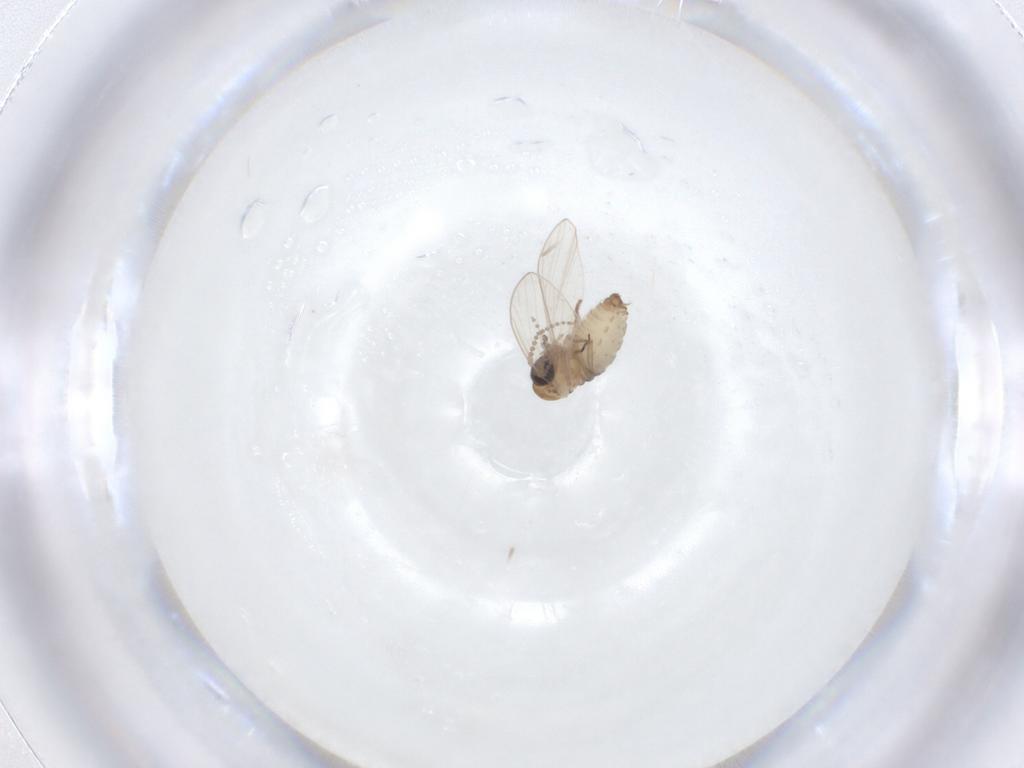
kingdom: Animalia
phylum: Arthropoda
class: Insecta
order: Diptera
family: Psychodidae
